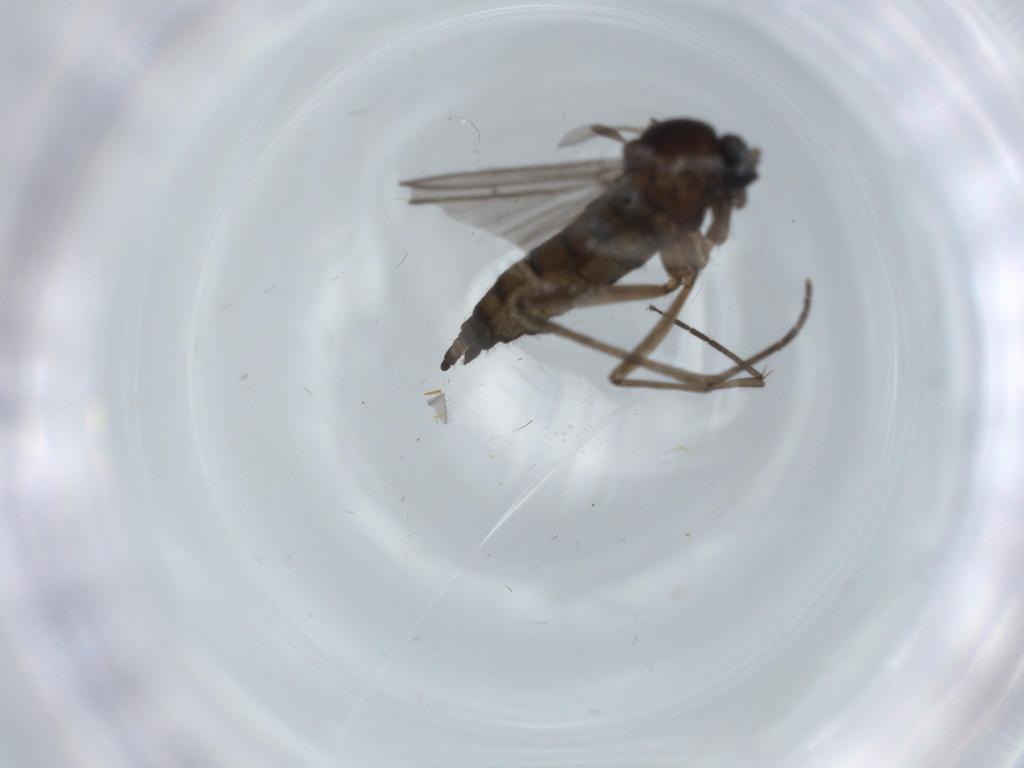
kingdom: Animalia
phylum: Arthropoda
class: Insecta
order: Diptera
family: Sciaridae
